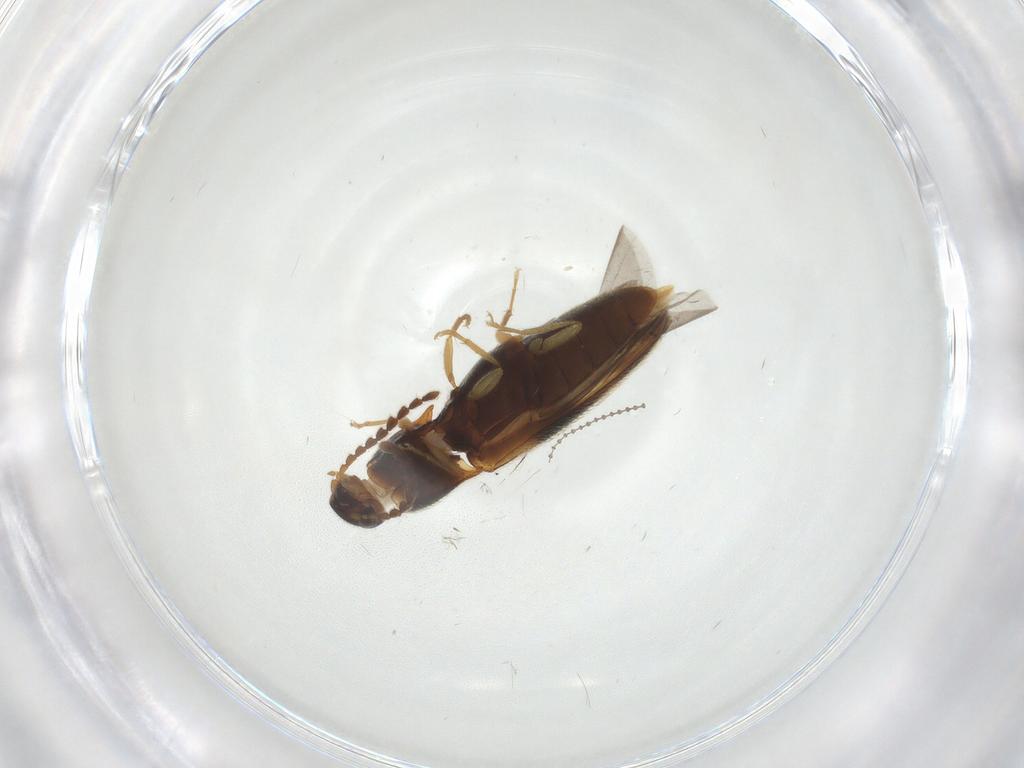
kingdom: Animalia
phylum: Arthropoda
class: Insecta
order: Coleoptera
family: Elateridae
